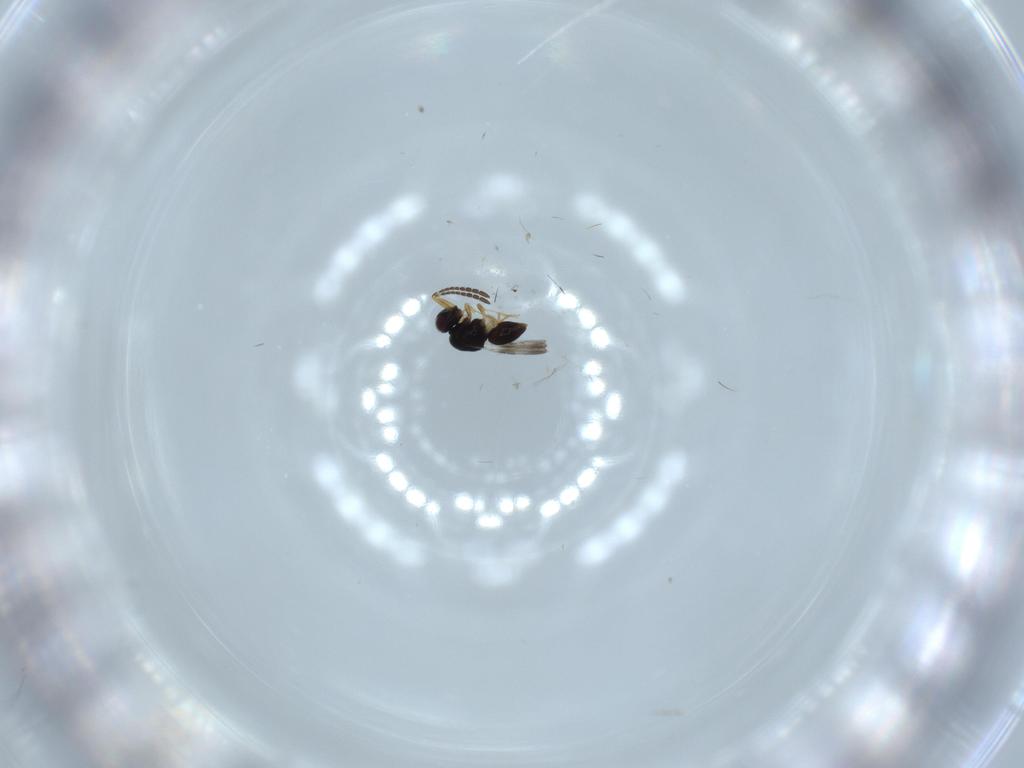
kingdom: Animalia
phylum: Arthropoda
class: Insecta
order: Hymenoptera
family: Ceraphronidae
